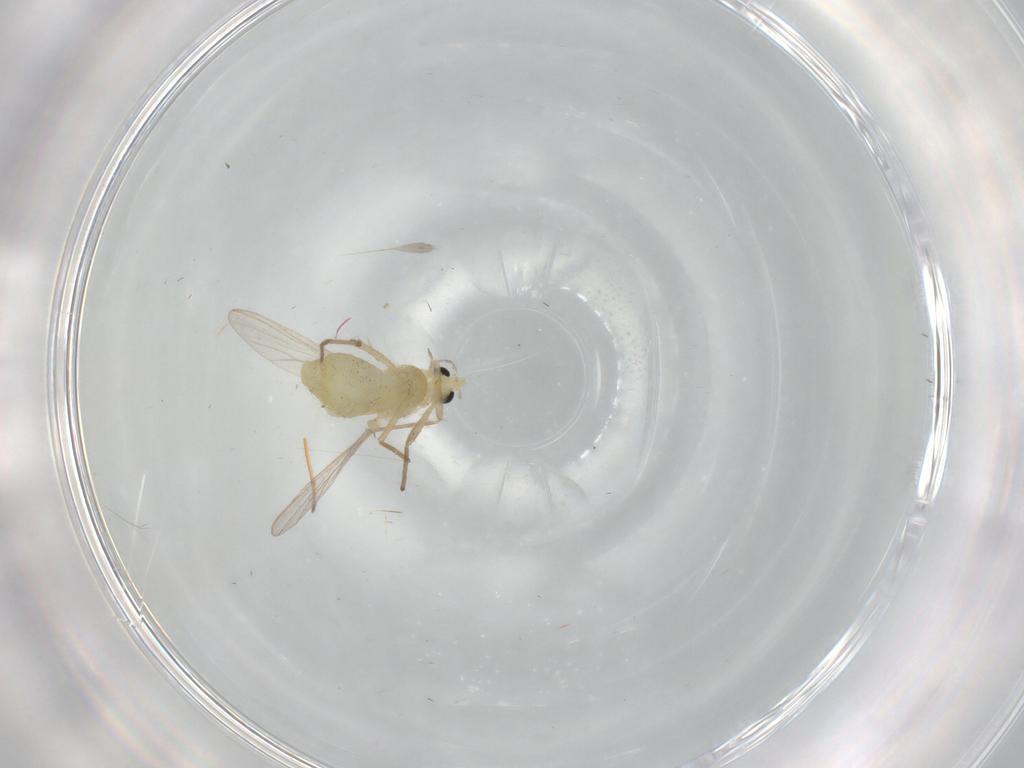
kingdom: Animalia
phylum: Arthropoda
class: Insecta
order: Diptera
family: Chironomidae
